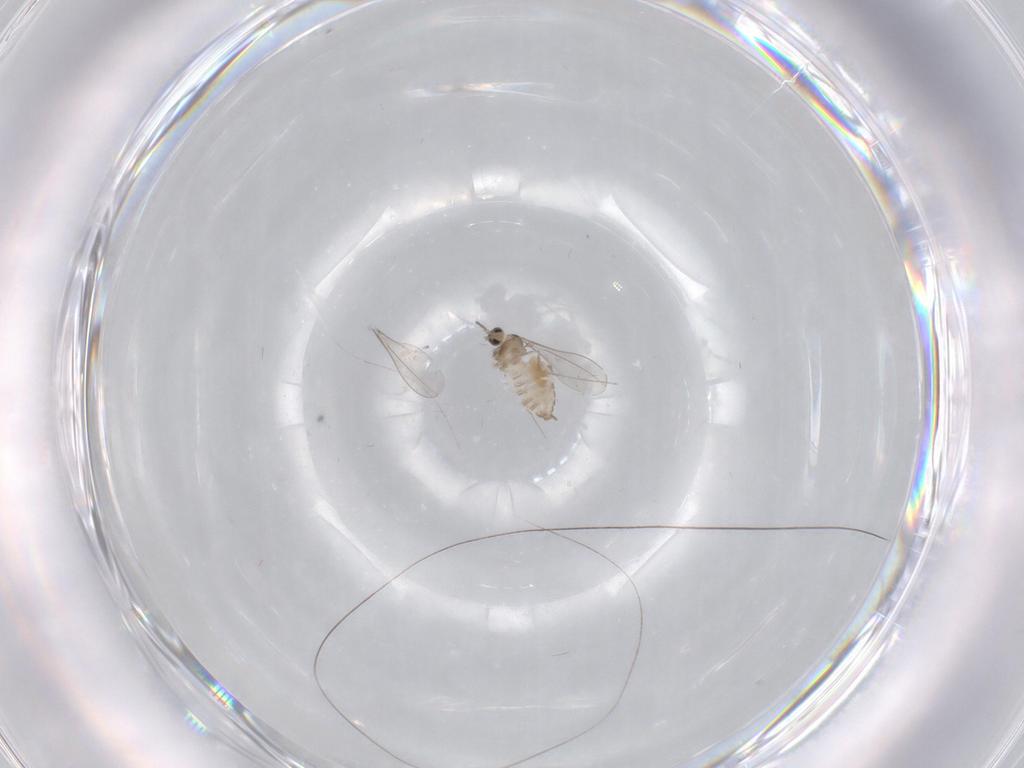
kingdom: Animalia
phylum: Arthropoda
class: Insecta
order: Diptera
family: Cecidomyiidae
